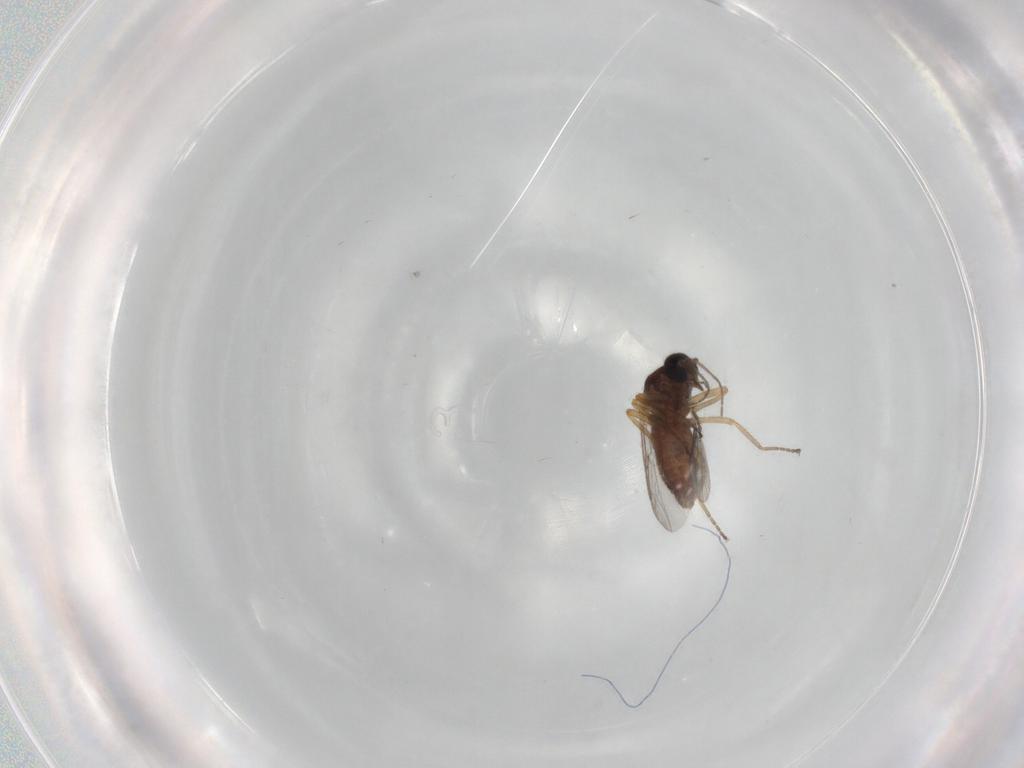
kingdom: Animalia
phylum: Arthropoda
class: Insecta
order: Diptera
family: Ceratopogonidae
